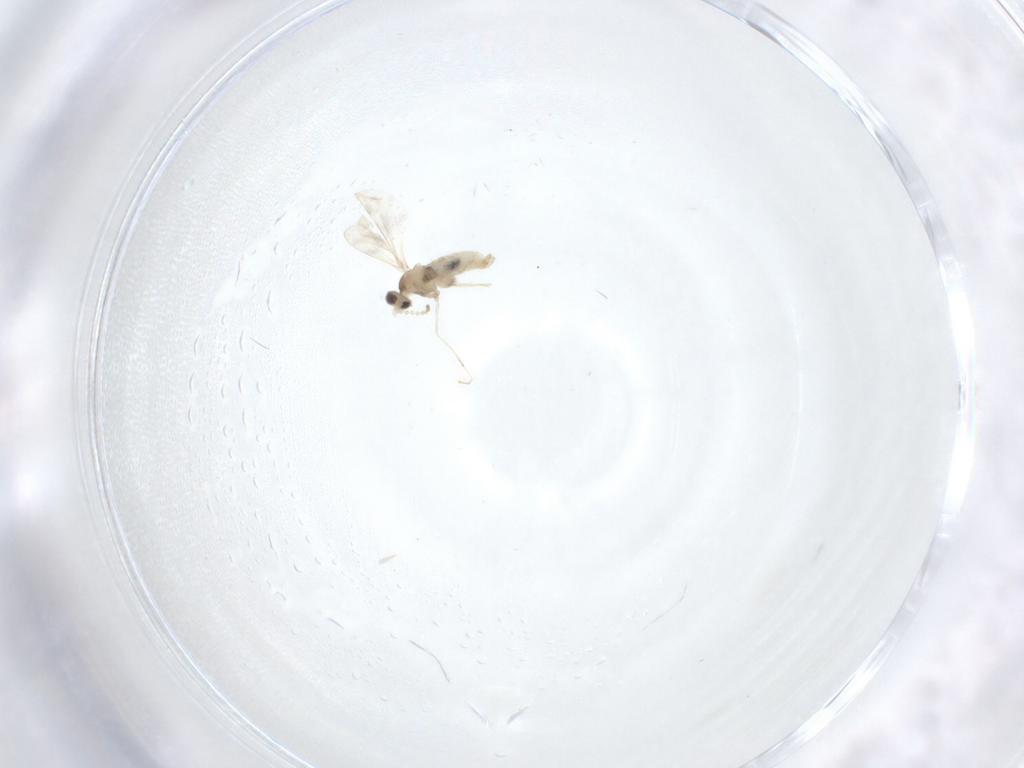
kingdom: Animalia
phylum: Arthropoda
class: Insecta
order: Diptera
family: Cecidomyiidae
